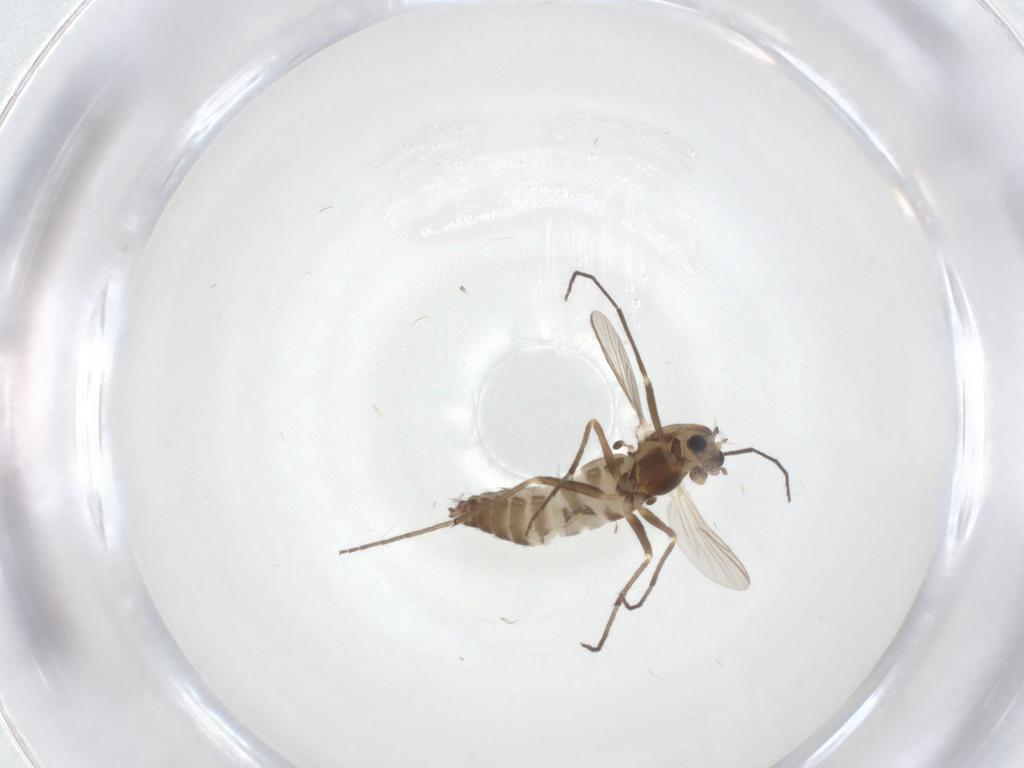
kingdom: Animalia
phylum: Arthropoda
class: Insecta
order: Diptera
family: Chironomidae
